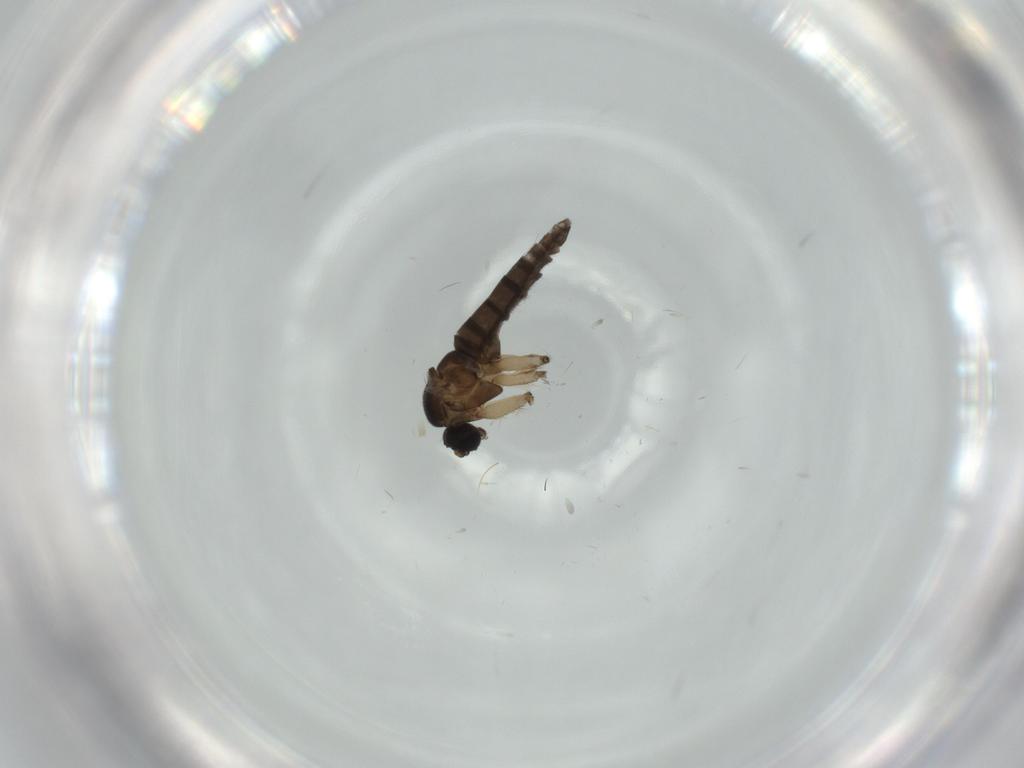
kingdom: Animalia
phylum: Arthropoda
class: Insecta
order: Diptera
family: Sciaridae
